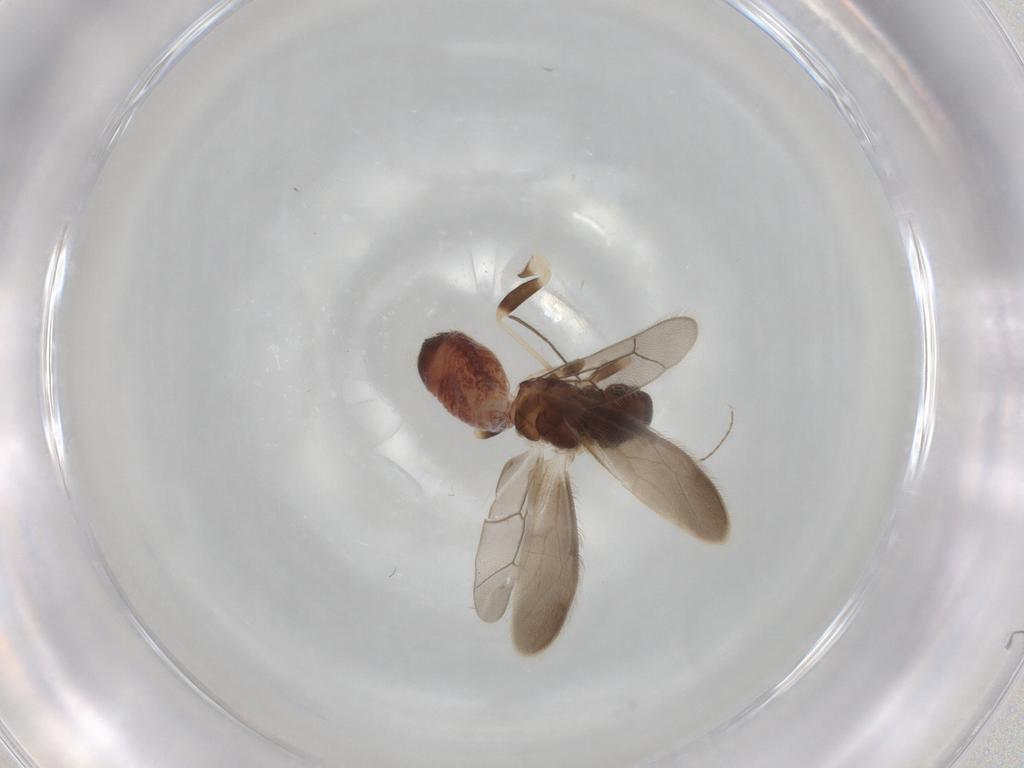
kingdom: Animalia
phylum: Arthropoda
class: Insecta
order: Psocodea
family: Archipsocidae
